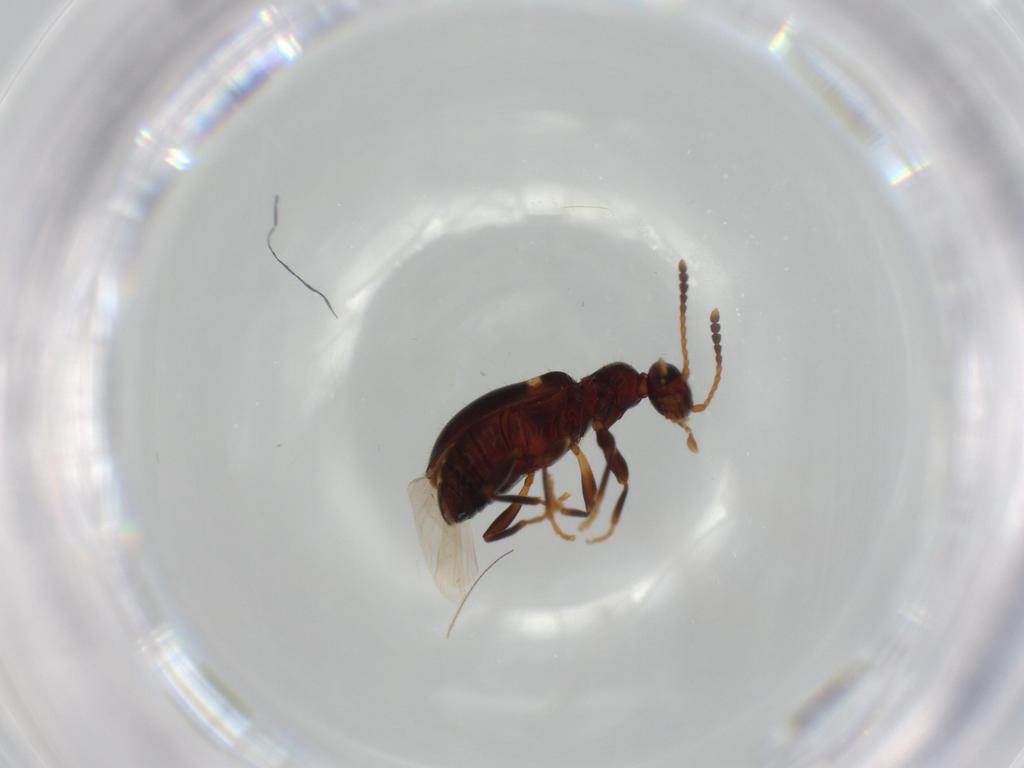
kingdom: Animalia
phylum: Arthropoda
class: Insecta
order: Coleoptera
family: Anthicidae
